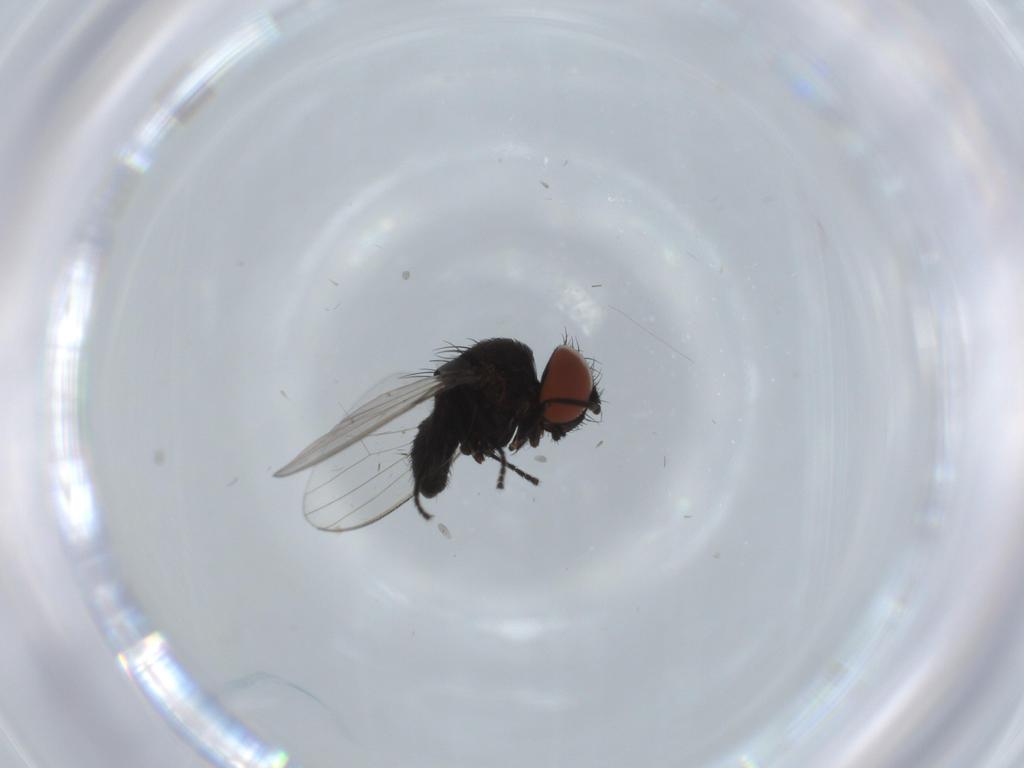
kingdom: Animalia
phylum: Arthropoda
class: Insecta
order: Diptera
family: Milichiidae
